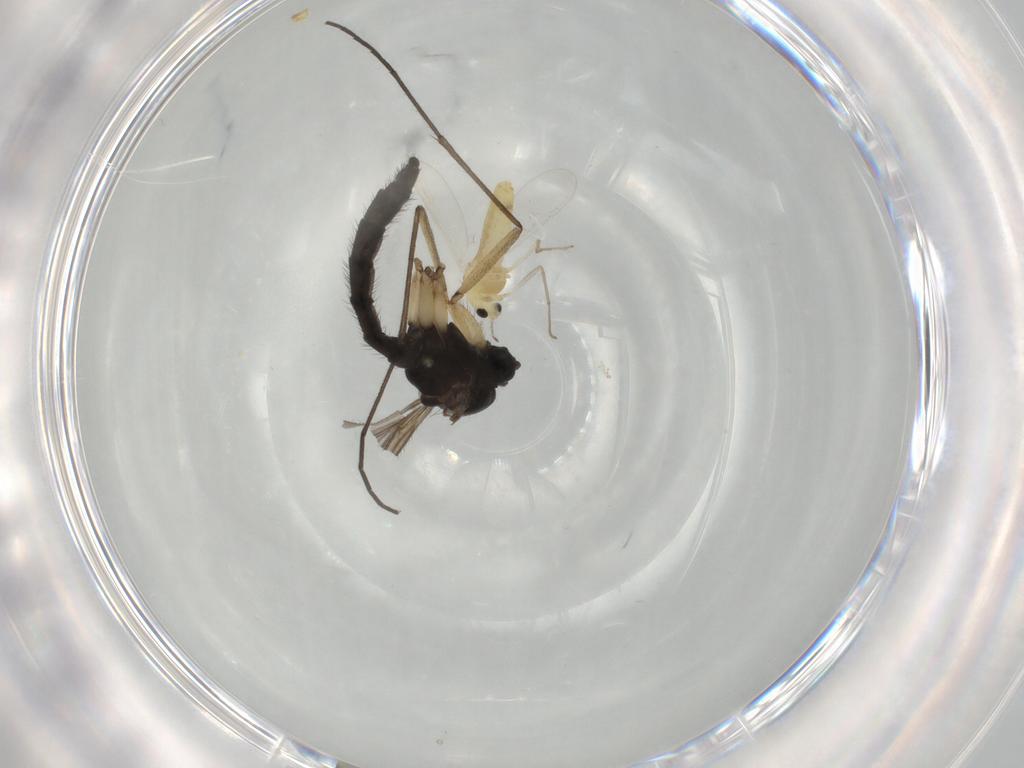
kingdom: Animalia
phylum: Arthropoda
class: Insecta
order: Diptera
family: Sciaridae
